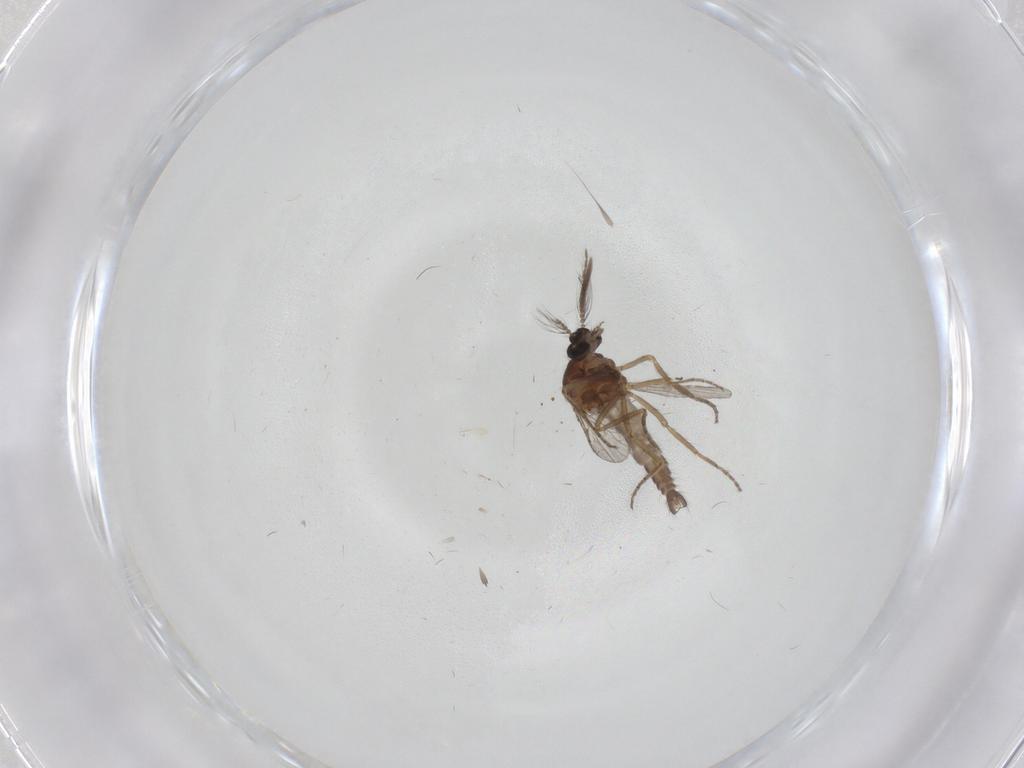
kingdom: Animalia
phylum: Arthropoda
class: Insecta
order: Diptera
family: Ceratopogonidae
